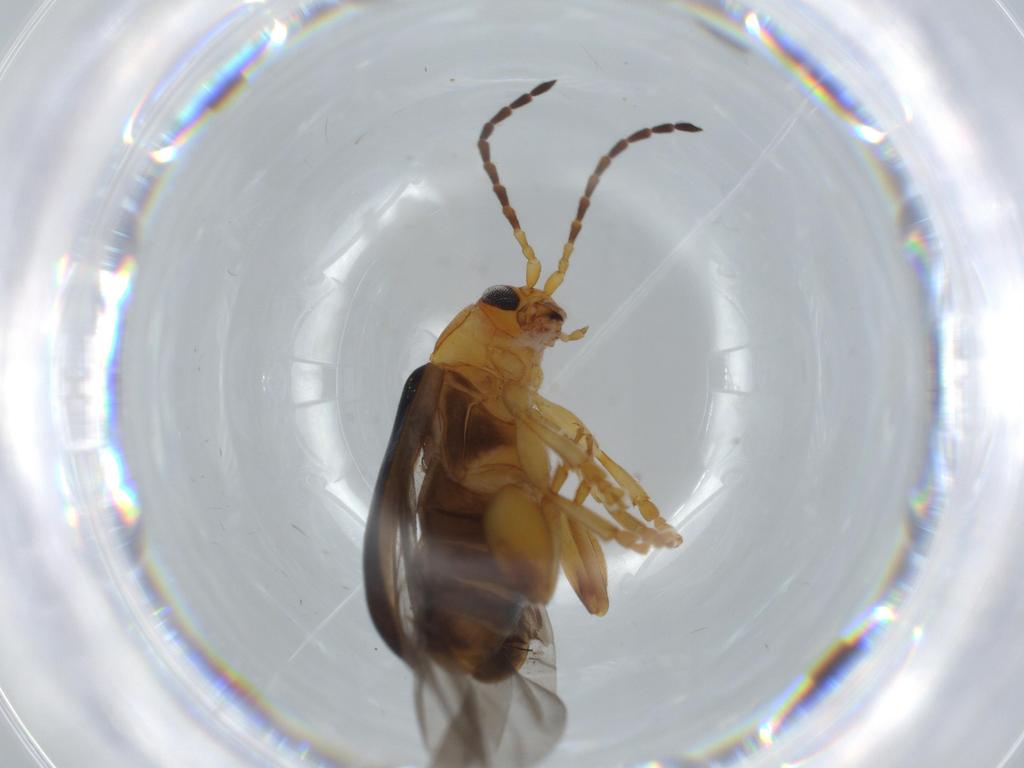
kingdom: Animalia
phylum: Arthropoda
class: Insecta
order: Coleoptera
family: Chrysomelidae
